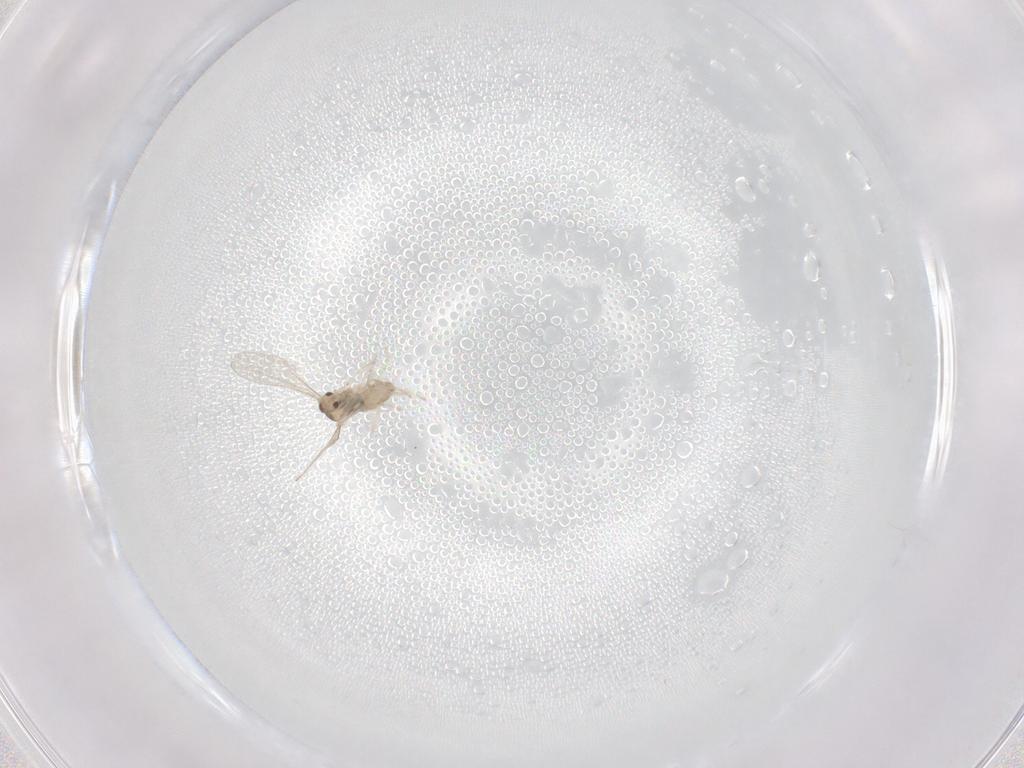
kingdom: Animalia
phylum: Arthropoda
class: Insecta
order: Diptera
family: Cecidomyiidae
